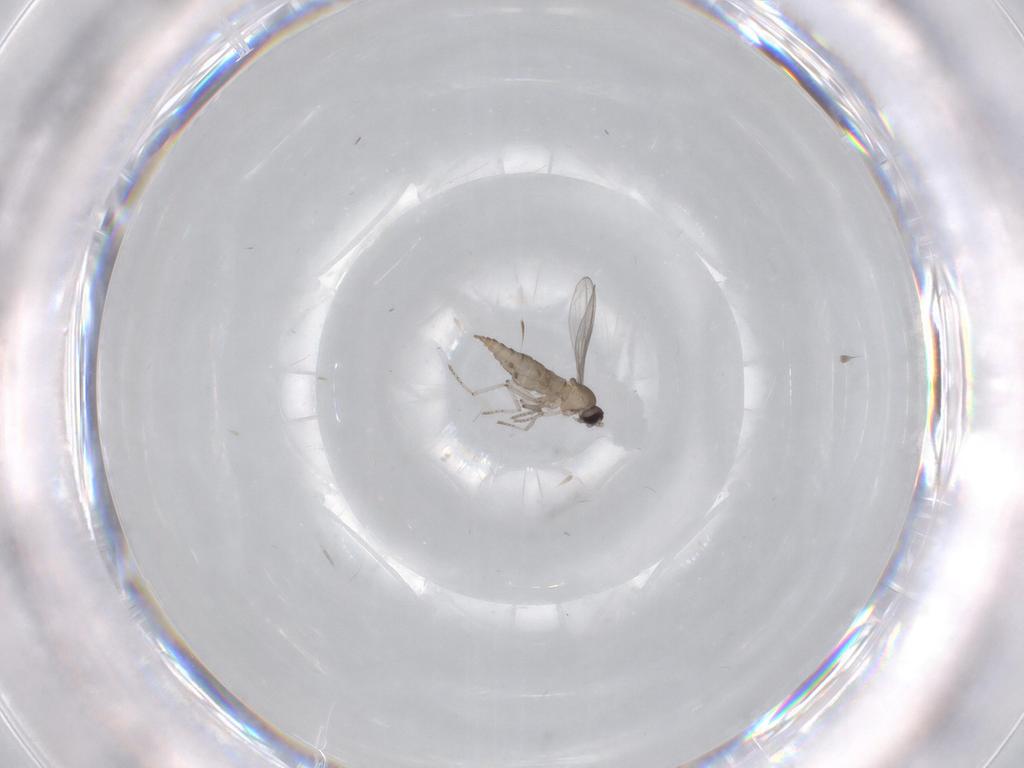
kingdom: Animalia
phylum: Arthropoda
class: Insecta
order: Diptera
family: Cecidomyiidae
